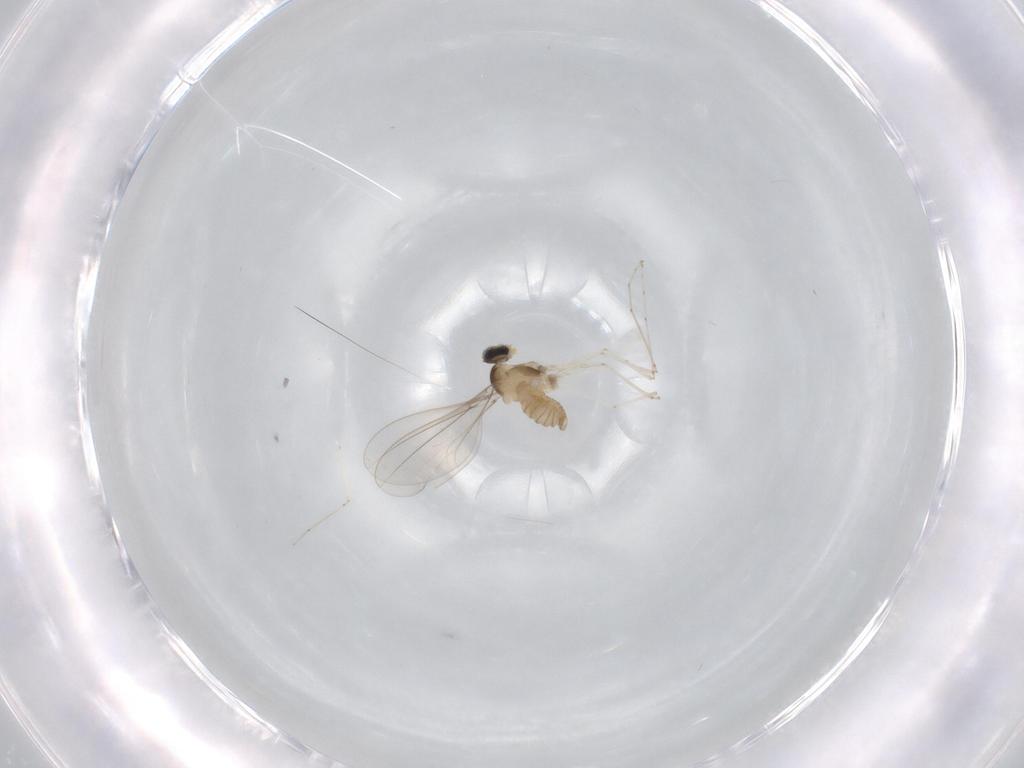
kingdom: Animalia
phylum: Arthropoda
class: Insecta
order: Diptera
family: Cecidomyiidae
